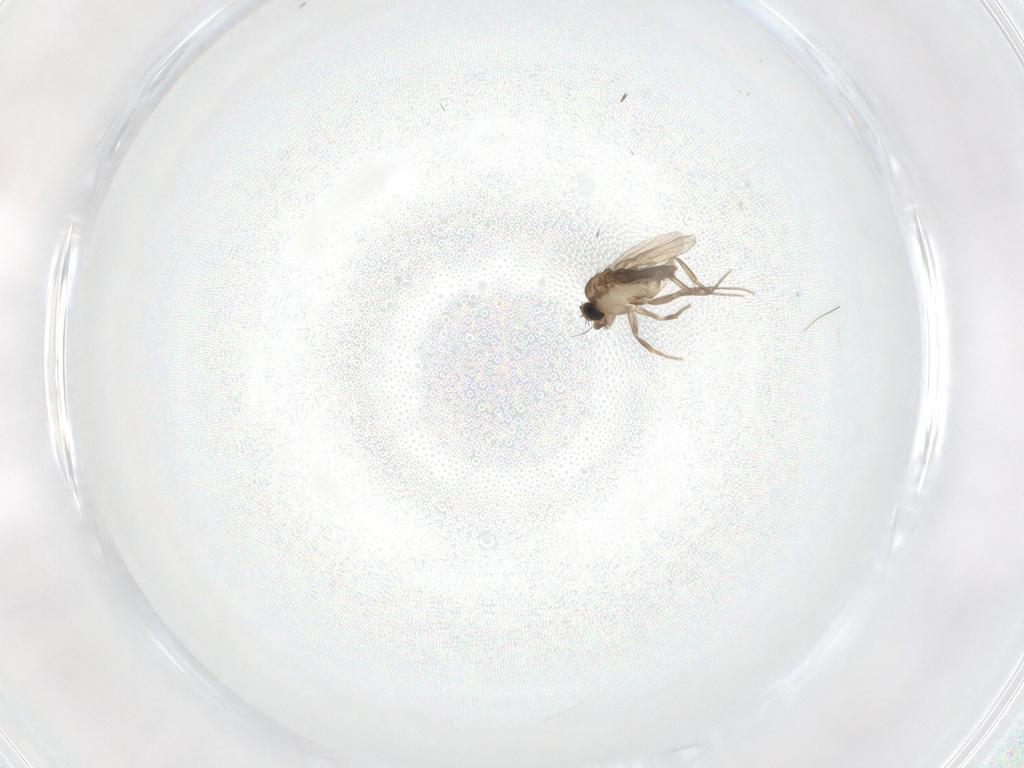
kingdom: Animalia
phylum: Arthropoda
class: Insecta
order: Diptera
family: Phoridae
